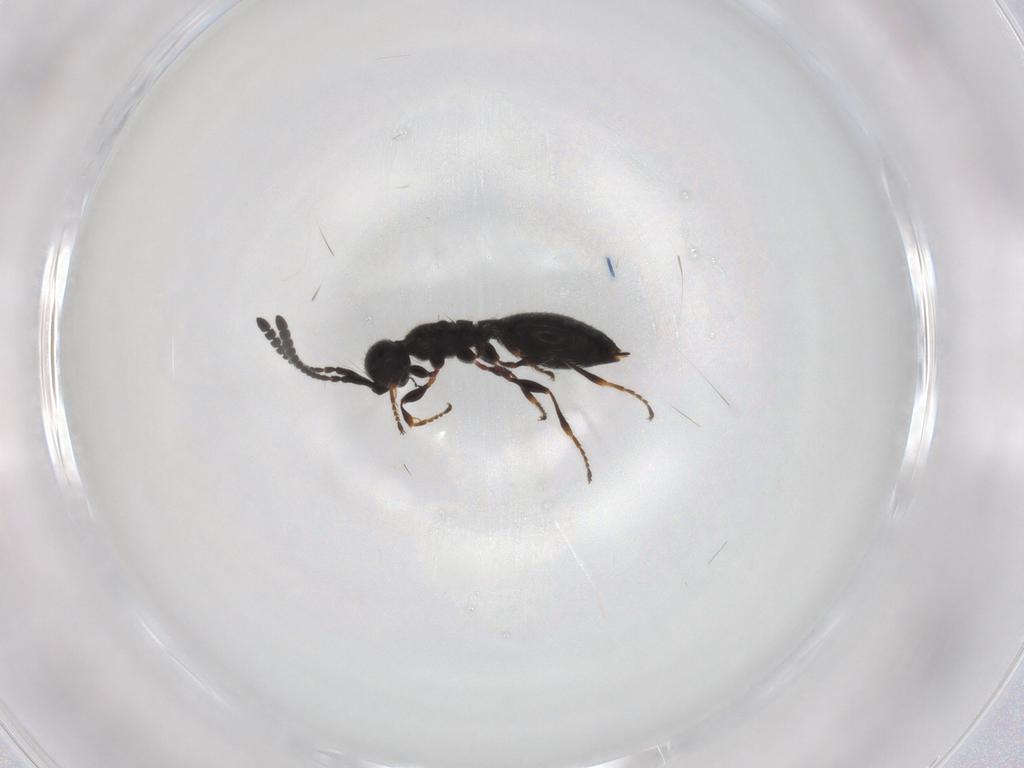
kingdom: Animalia
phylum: Arthropoda
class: Insecta
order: Hymenoptera
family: Diapriidae
